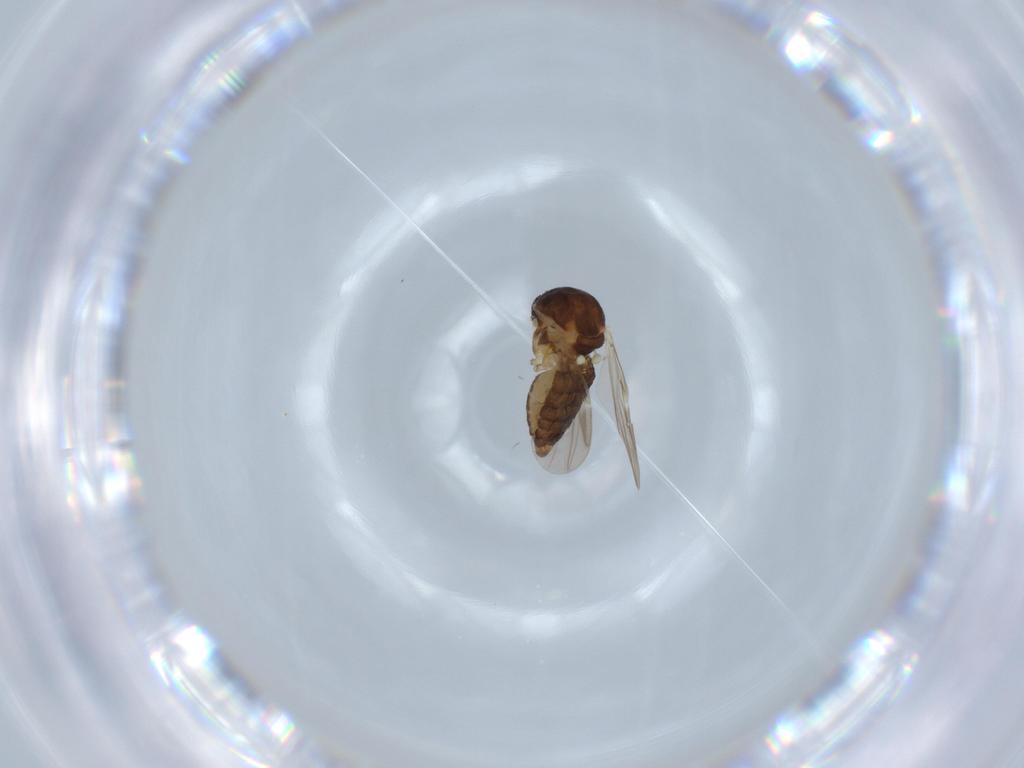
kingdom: Animalia
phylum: Arthropoda
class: Insecta
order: Diptera
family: Ceratopogonidae
